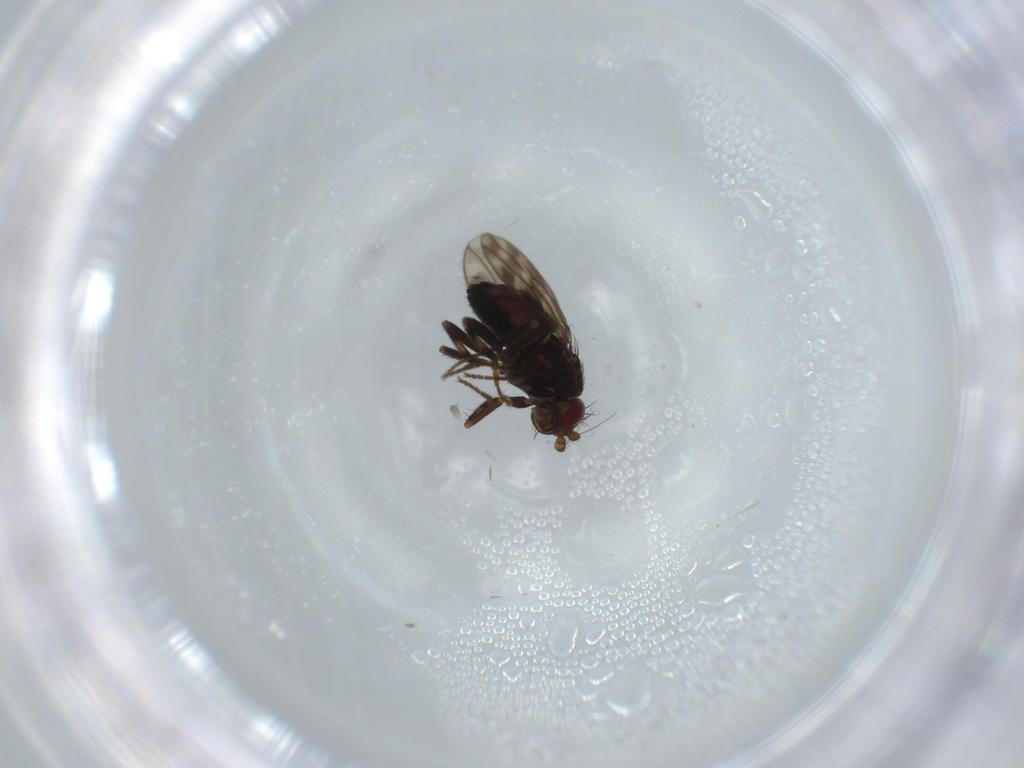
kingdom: Animalia
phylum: Arthropoda
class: Insecta
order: Diptera
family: Sphaeroceridae
